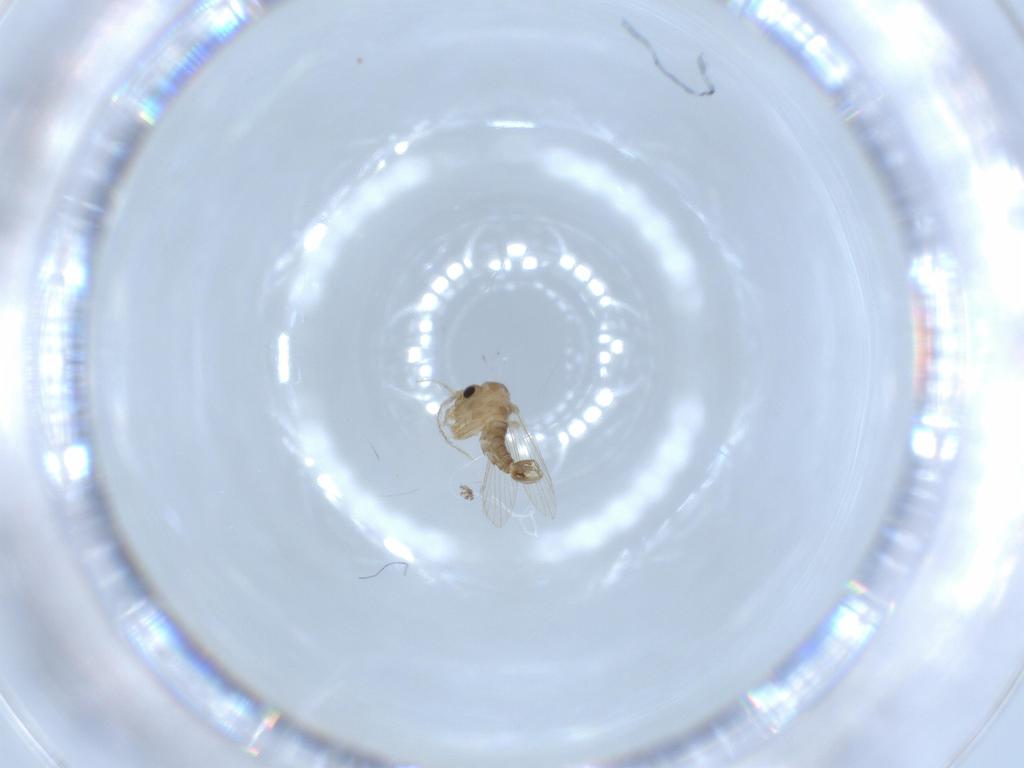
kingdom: Animalia
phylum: Arthropoda
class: Insecta
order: Diptera
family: Psychodidae
